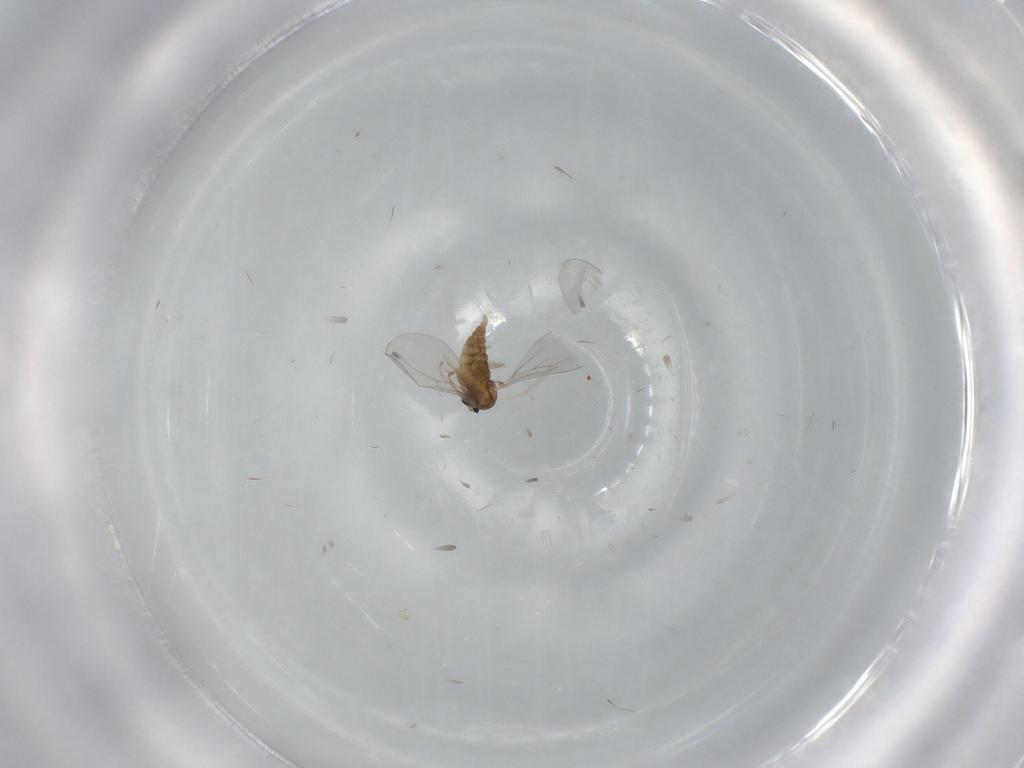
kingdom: Animalia
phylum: Arthropoda
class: Insecta
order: Diptera
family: Cecidomyiidae
